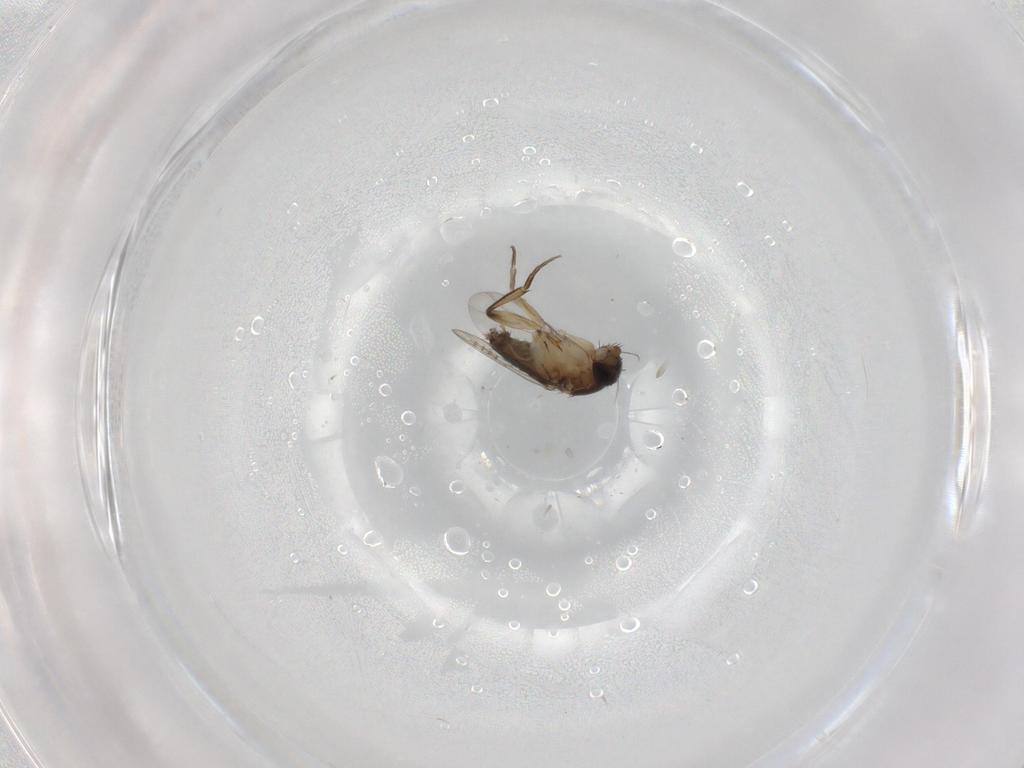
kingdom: Animalia
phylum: Arthropoda
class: Insecta
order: Diptera
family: Phoridae
